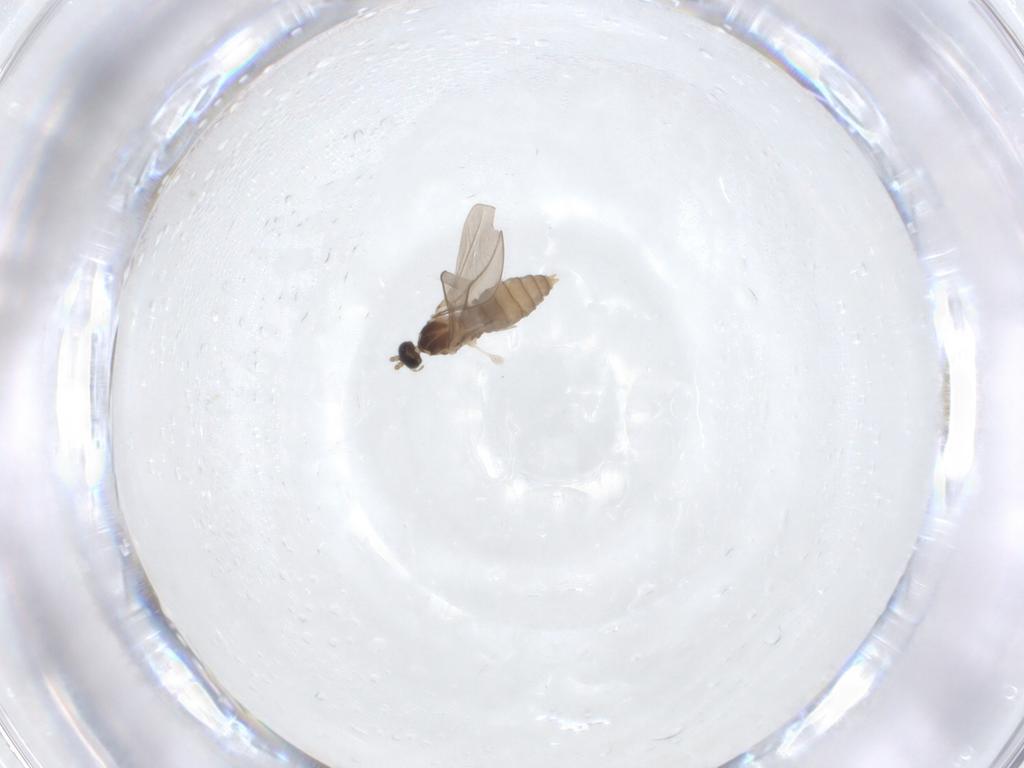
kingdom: Animalia
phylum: Arthropoda
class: Insecta
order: Diptera
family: Cecidomyiidae
